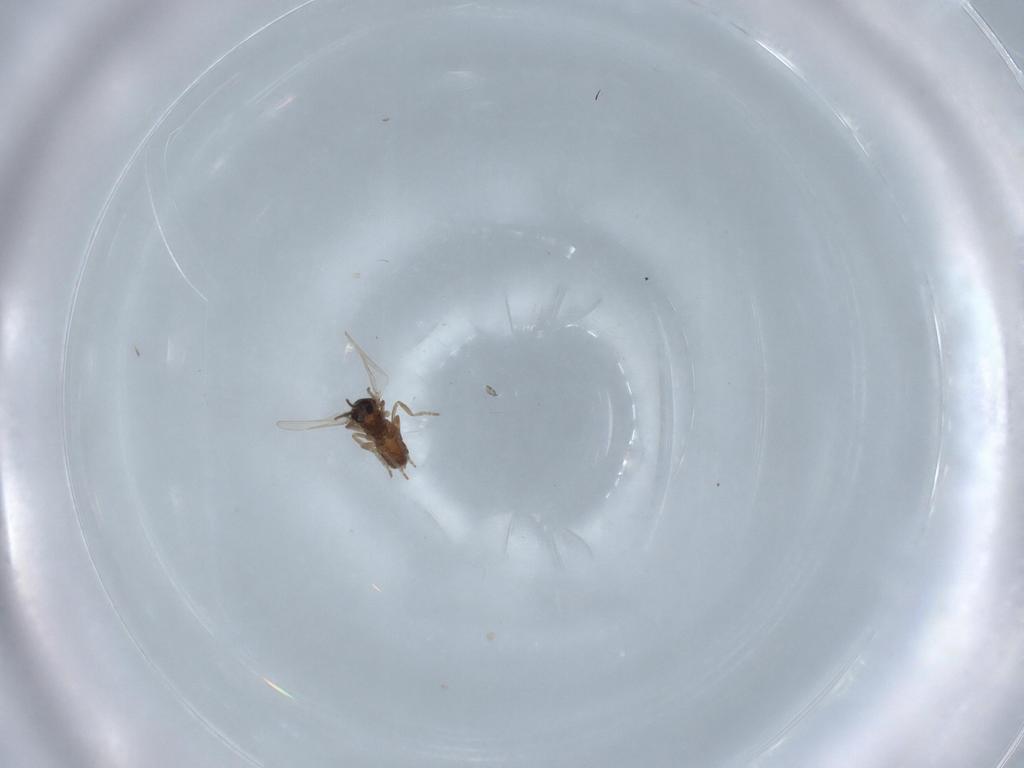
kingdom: Animalia
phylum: Arthropoda
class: Insecta
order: Diptera
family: Ceratopogonidae
